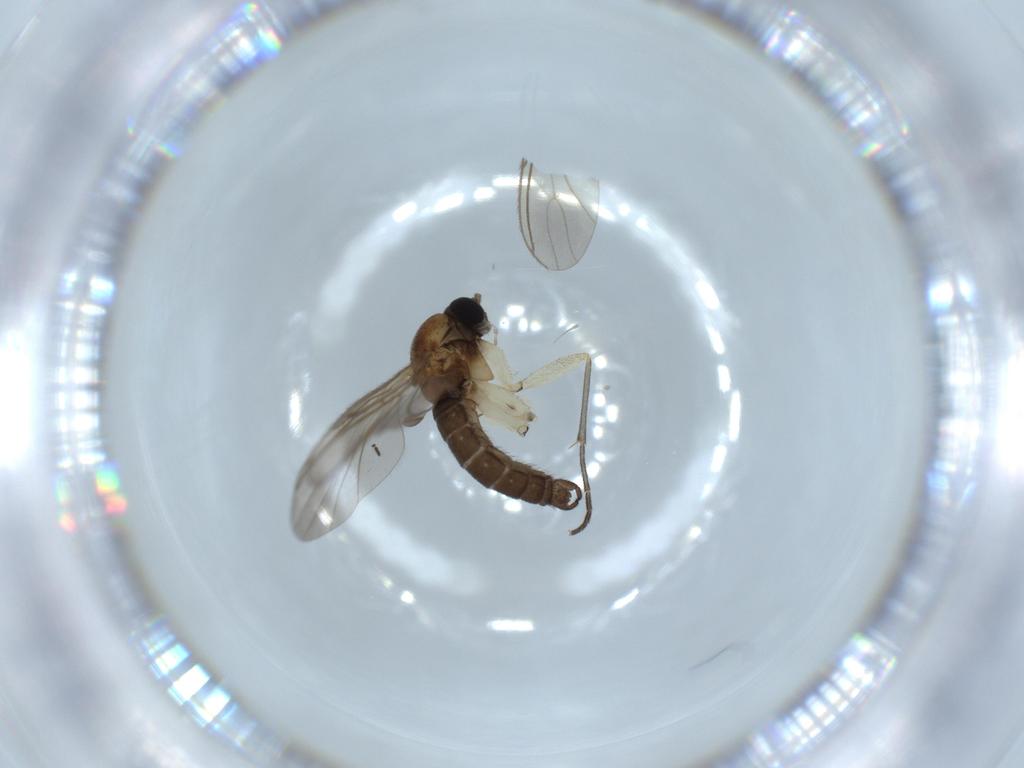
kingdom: Animalia
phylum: Arthropoda
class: Insecta
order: Diptera
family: Sciaridae
